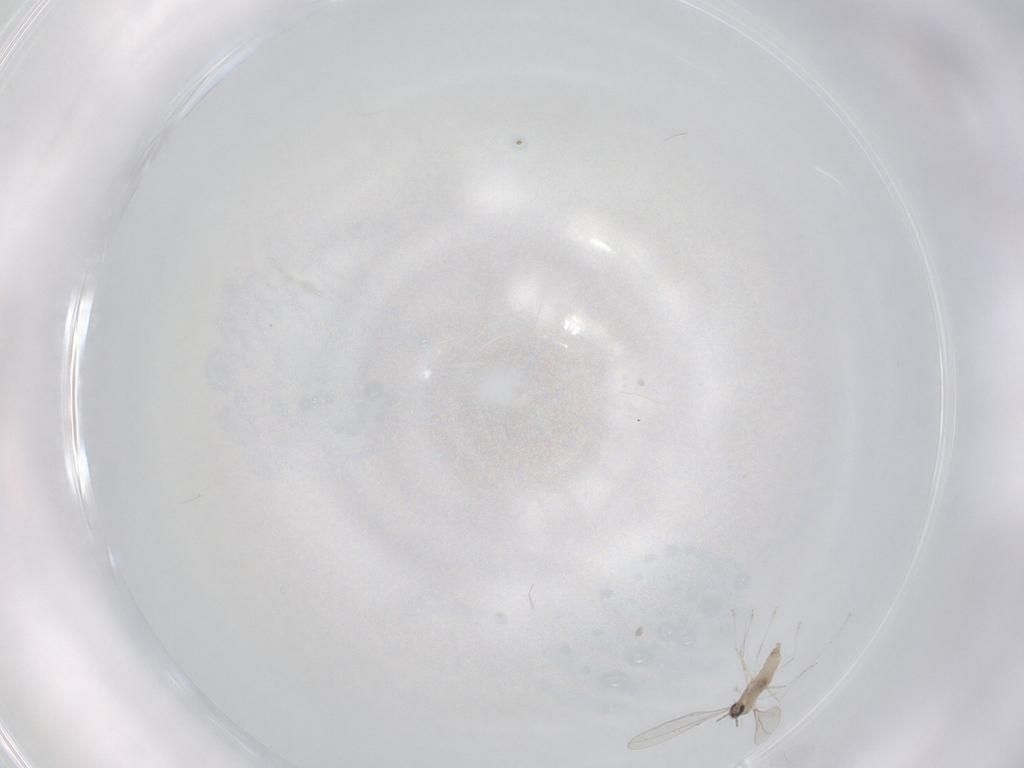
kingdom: Animalia
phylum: Arthropoda
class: Insecta
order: Diptera
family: Cecidomyiidae
